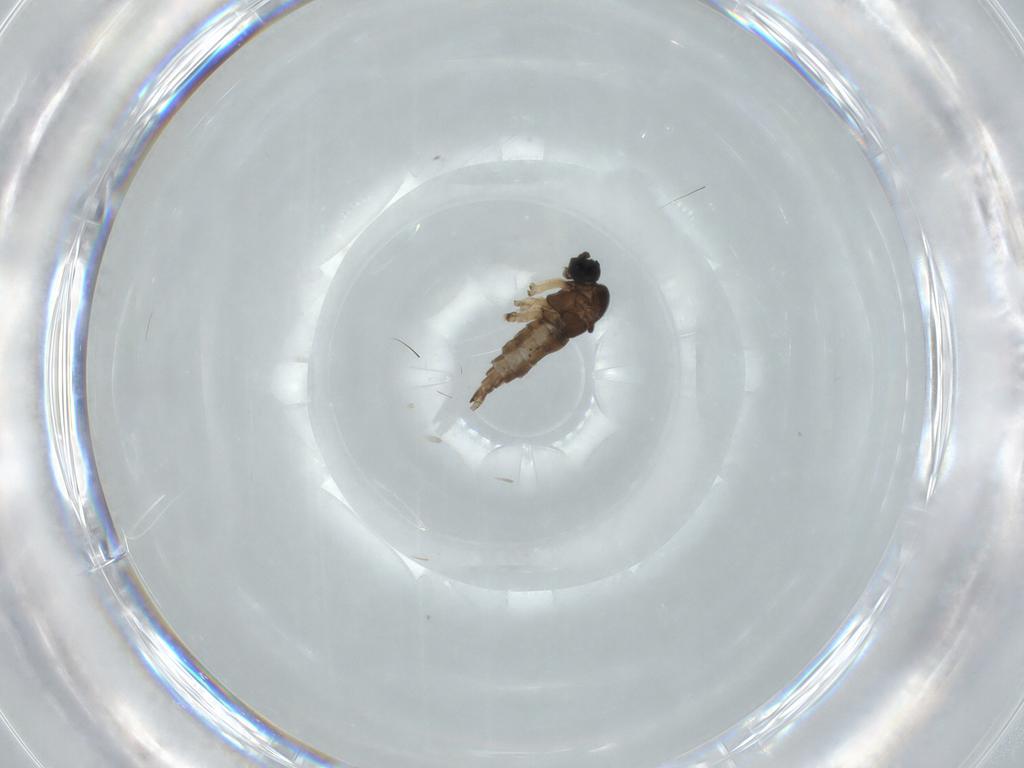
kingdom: Animalia
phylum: Arthropoda
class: Insecta
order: Diptera
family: Sciaridae
